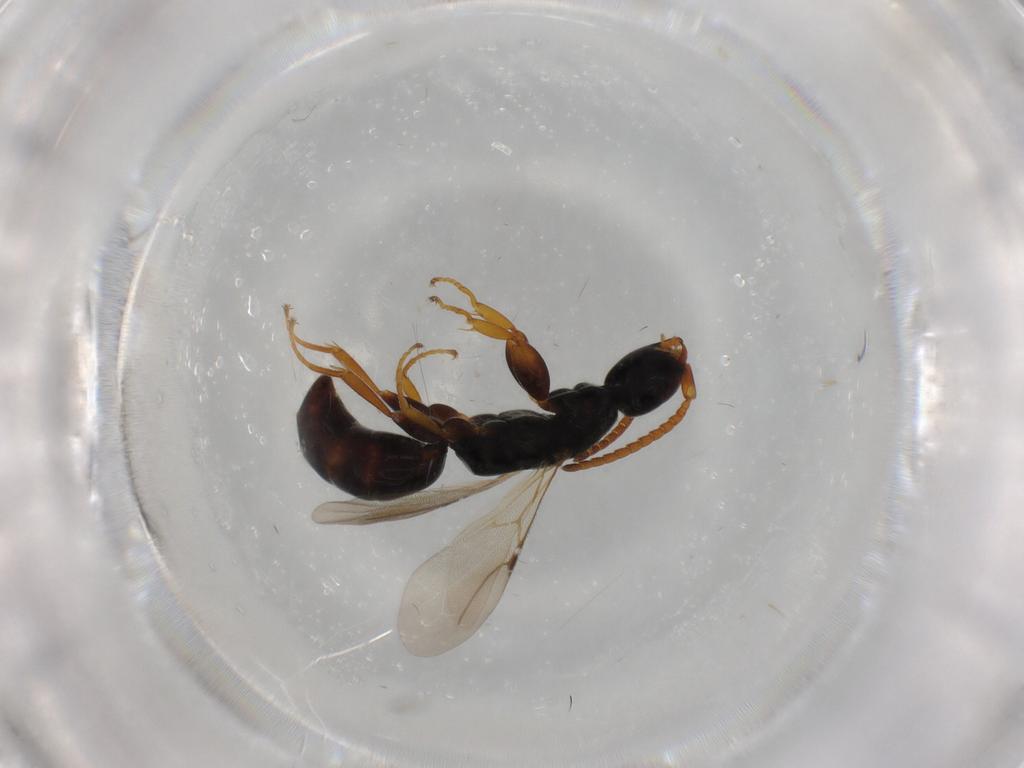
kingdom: Animalia
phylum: Arthropoda
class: Insecta
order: Hymenoptera
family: Bethylidae
